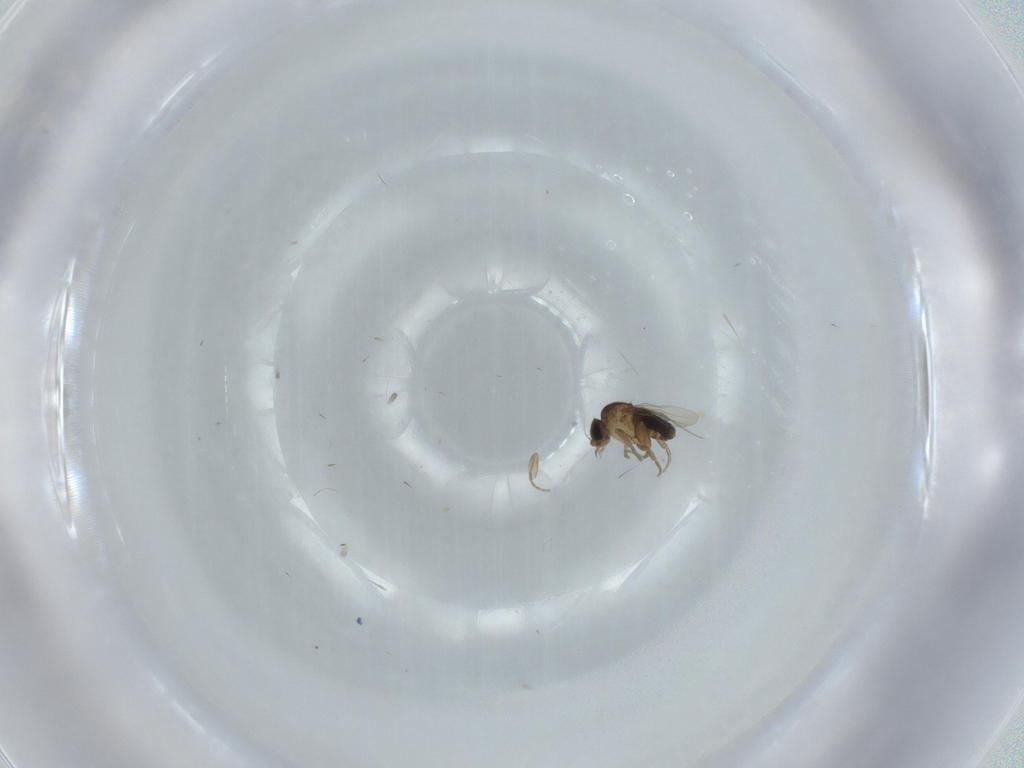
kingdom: Animalia
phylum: Arthropoda
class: Insecta
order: Diptera
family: Phoridae
